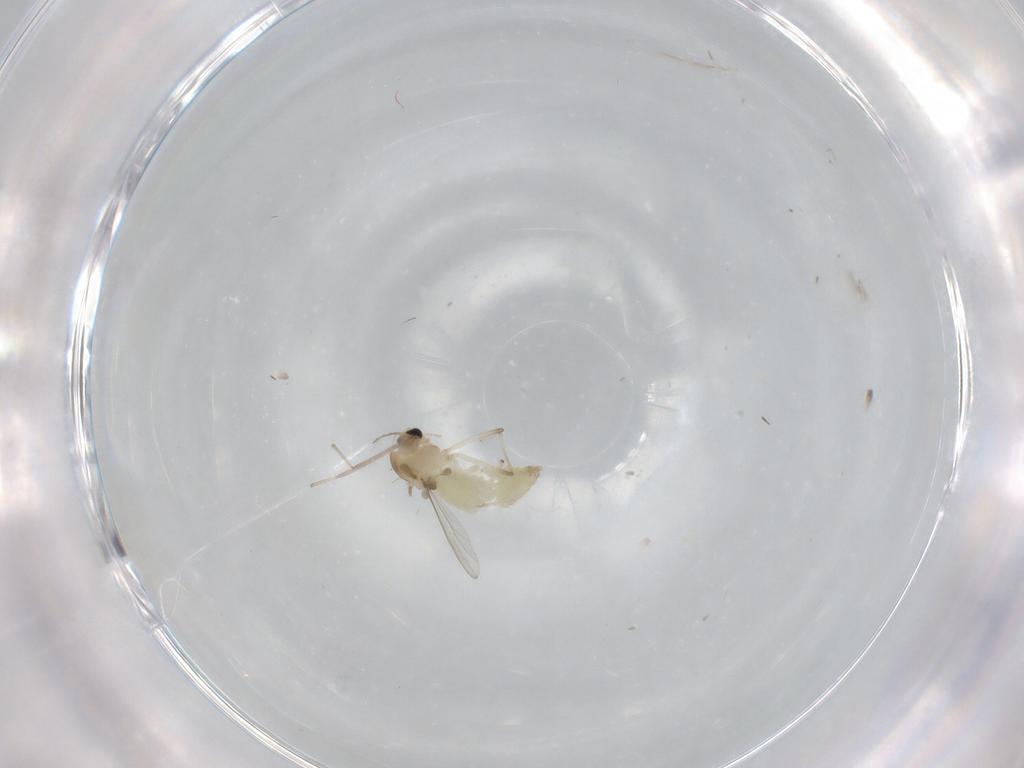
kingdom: Animalia
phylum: Arthropoda
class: Insecta
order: Diptera
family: Chironomidae
